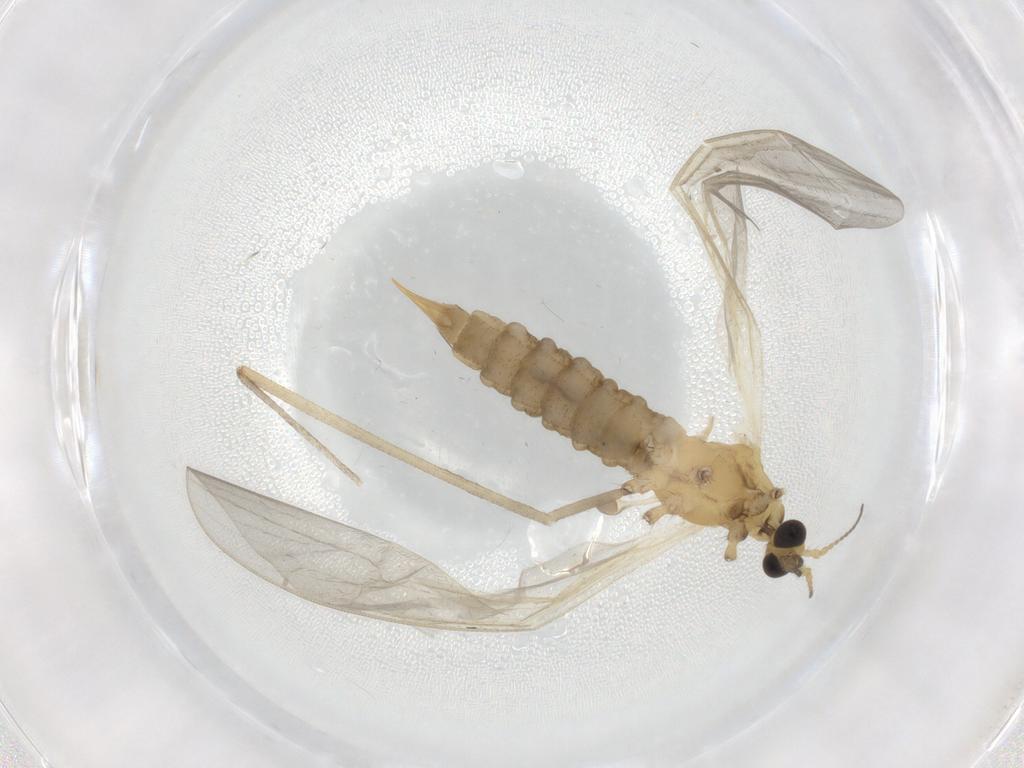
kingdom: Animalia
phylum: Arthropoda
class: Insecta
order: Diptera
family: Limoniidae
